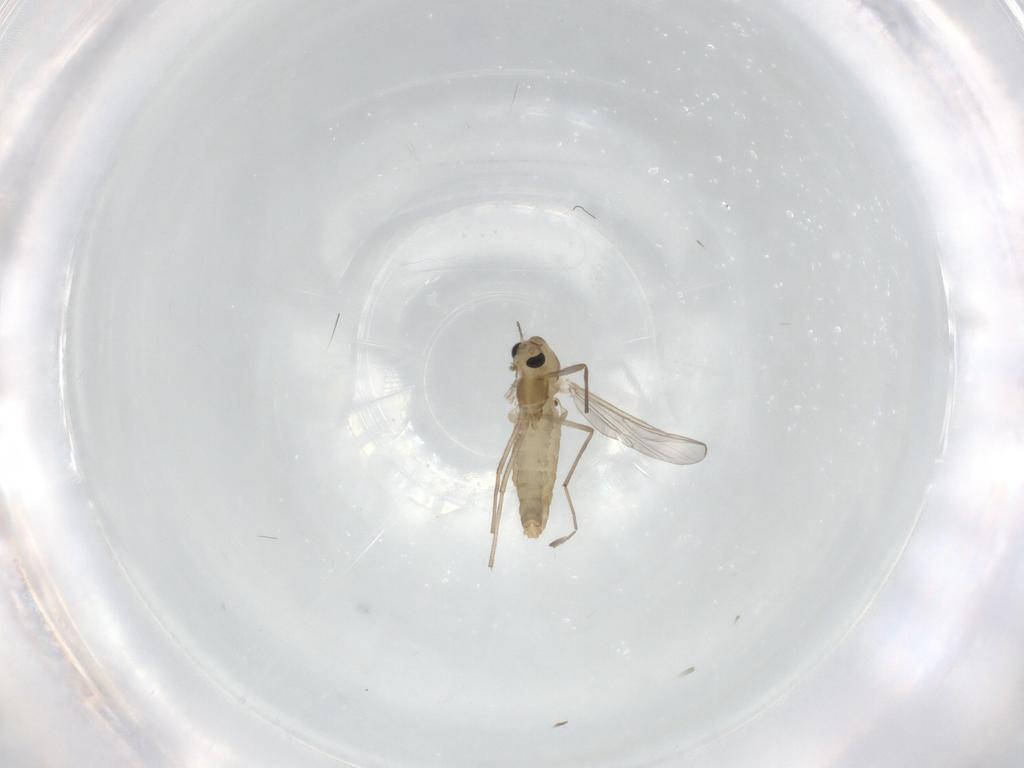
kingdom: Animalia
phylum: Arthropoda
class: Insecta
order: Diptera
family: Chironomidae
